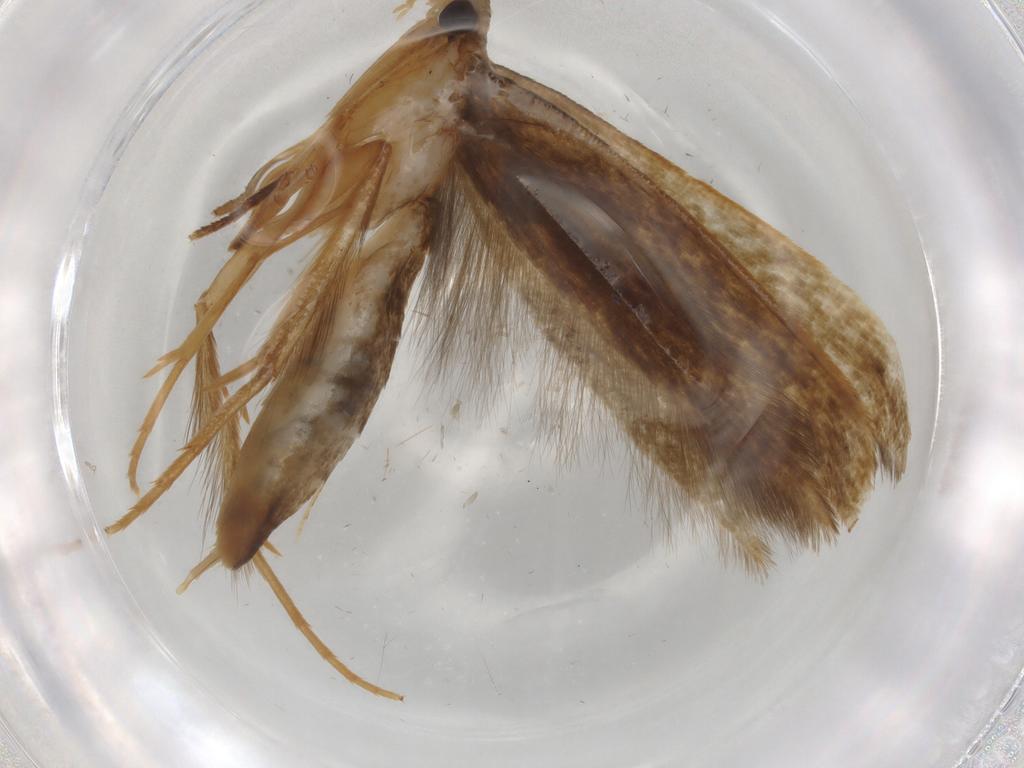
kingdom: Animalia
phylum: Arthropoda
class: Insecta
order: Lepidoptera
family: Tineidae
